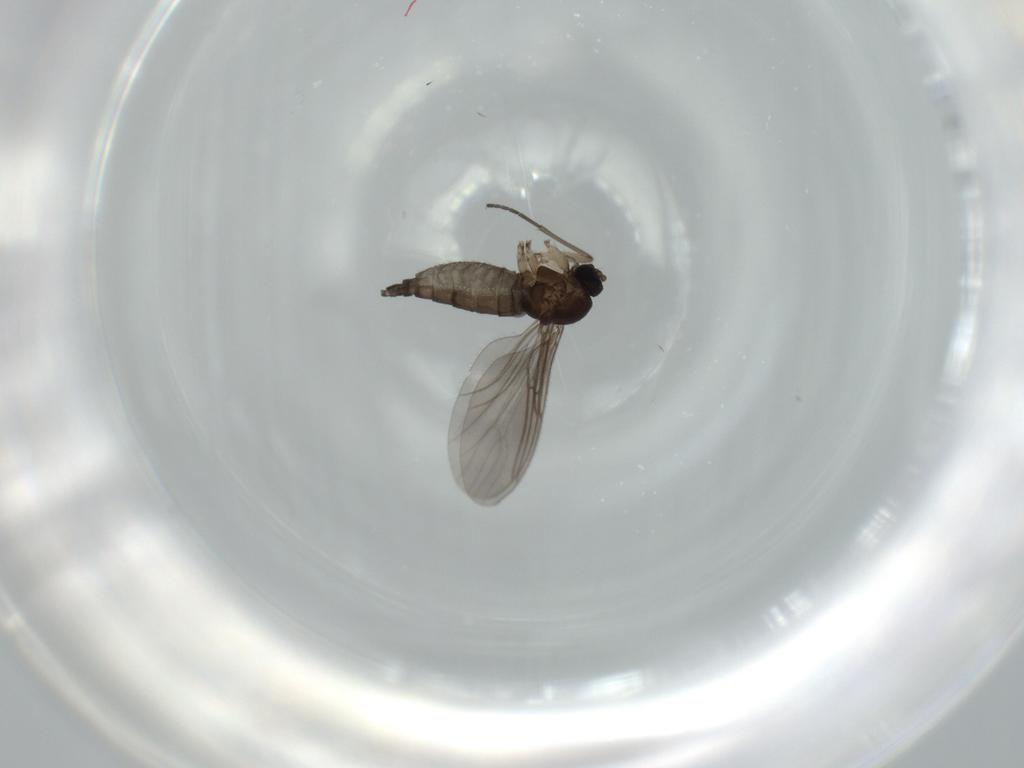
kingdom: Animalia
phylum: Arthropoda
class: Insecta
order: Diptera
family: Sciaridae
